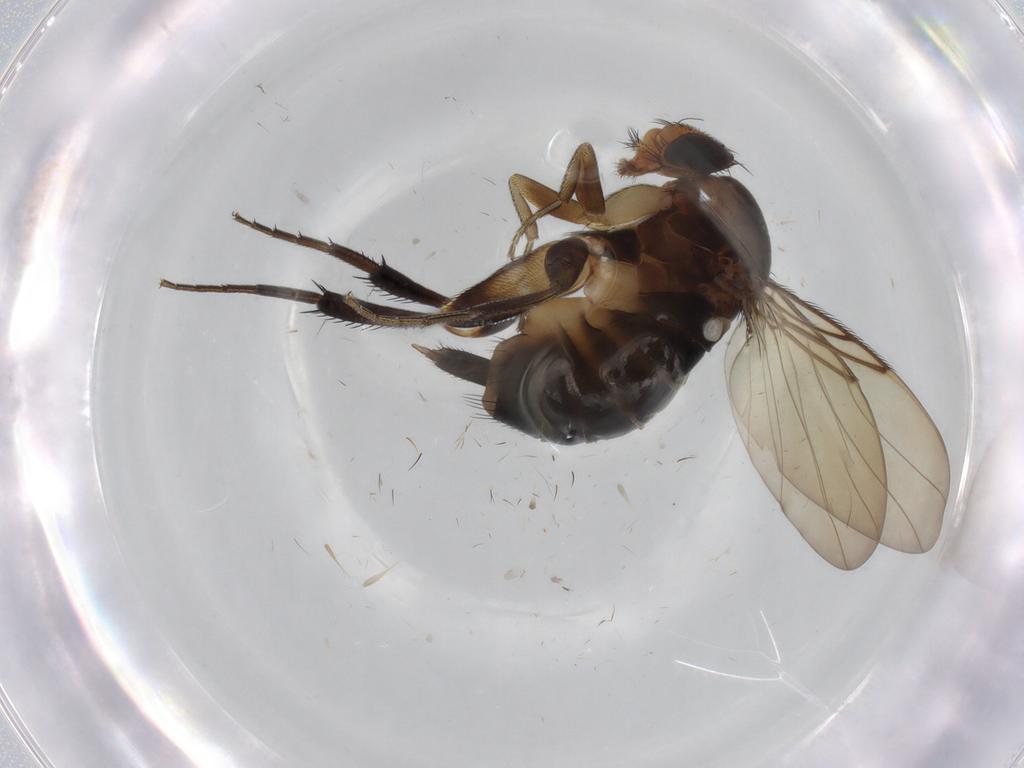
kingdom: Animalia
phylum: Arthropoda
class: Insecta
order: Diptera
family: Phoridae
